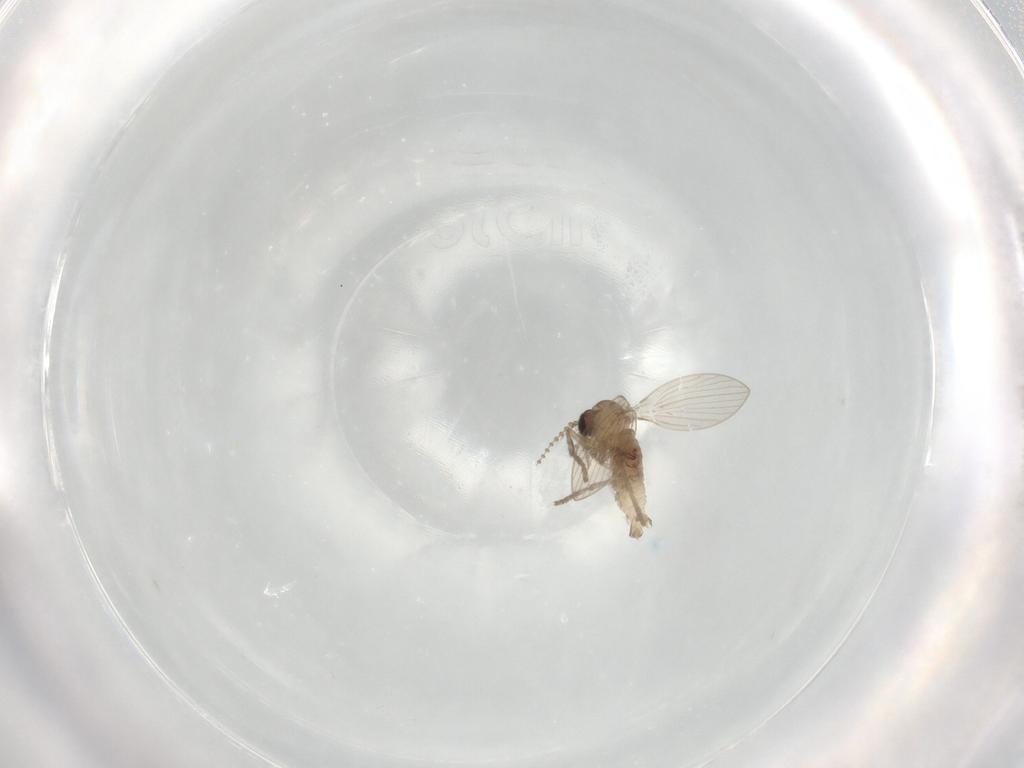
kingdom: Animalia
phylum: Arthropoda
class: Insecta
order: Diptera
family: Psychodidae
